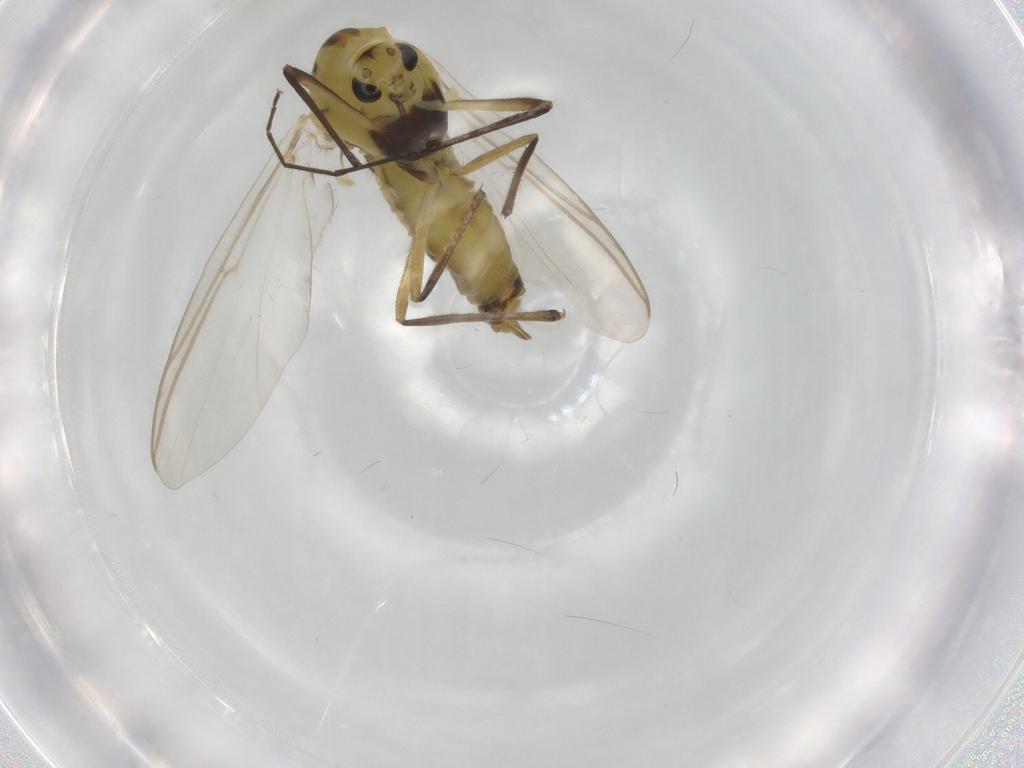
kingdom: Animalia
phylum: Arthropoda
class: Insecta
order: Diptera
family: Chironomidae
